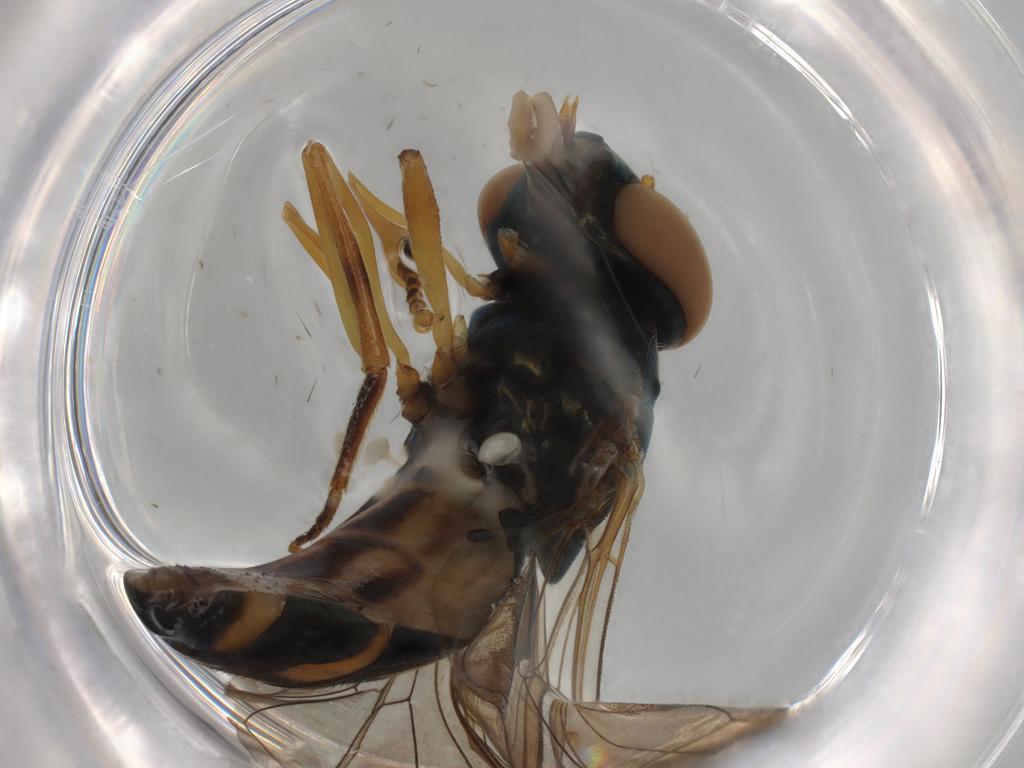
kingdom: Animalia
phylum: Arthropoda
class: Insecta
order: Diptera
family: Syrphidae
